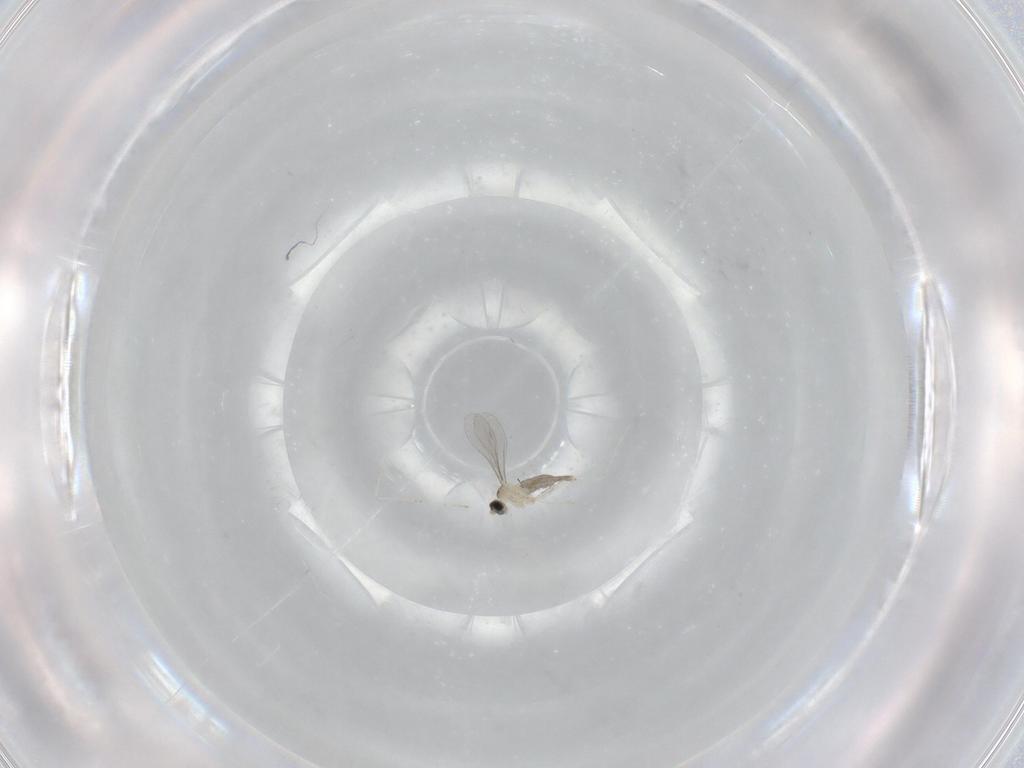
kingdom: Animalia
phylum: Arthropoda
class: Insecta
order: Diptera
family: Cecidomyiidae
